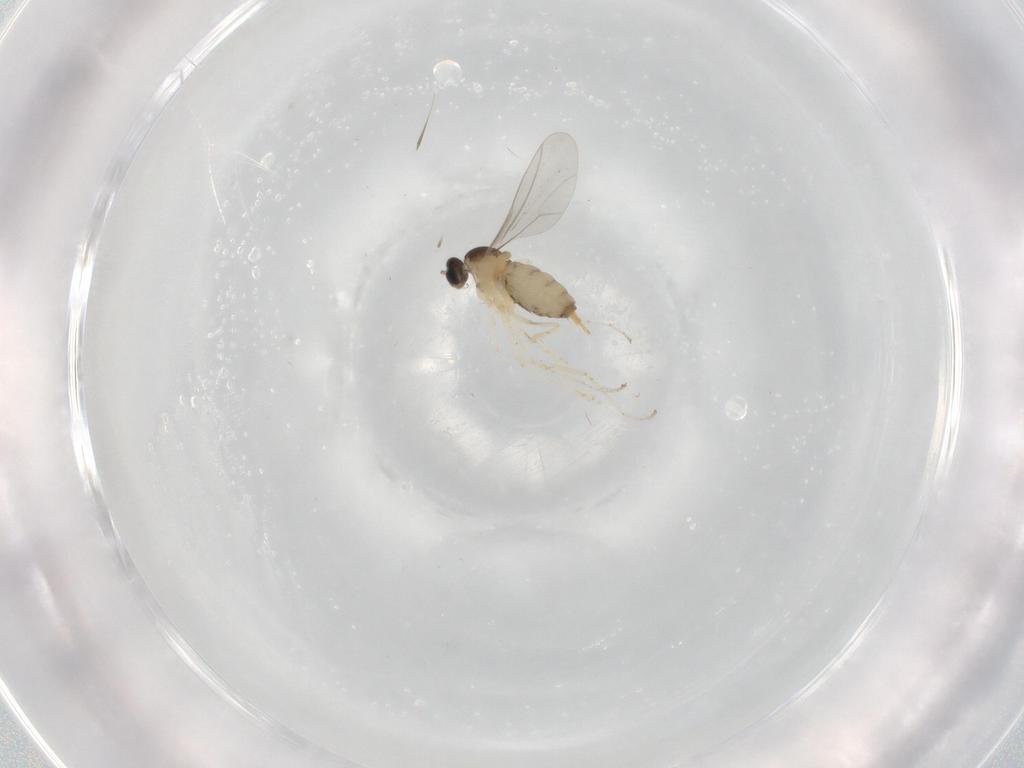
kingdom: Animalia
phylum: Arthropoda
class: Insecta
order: Diptera
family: Cecidomyiidae
